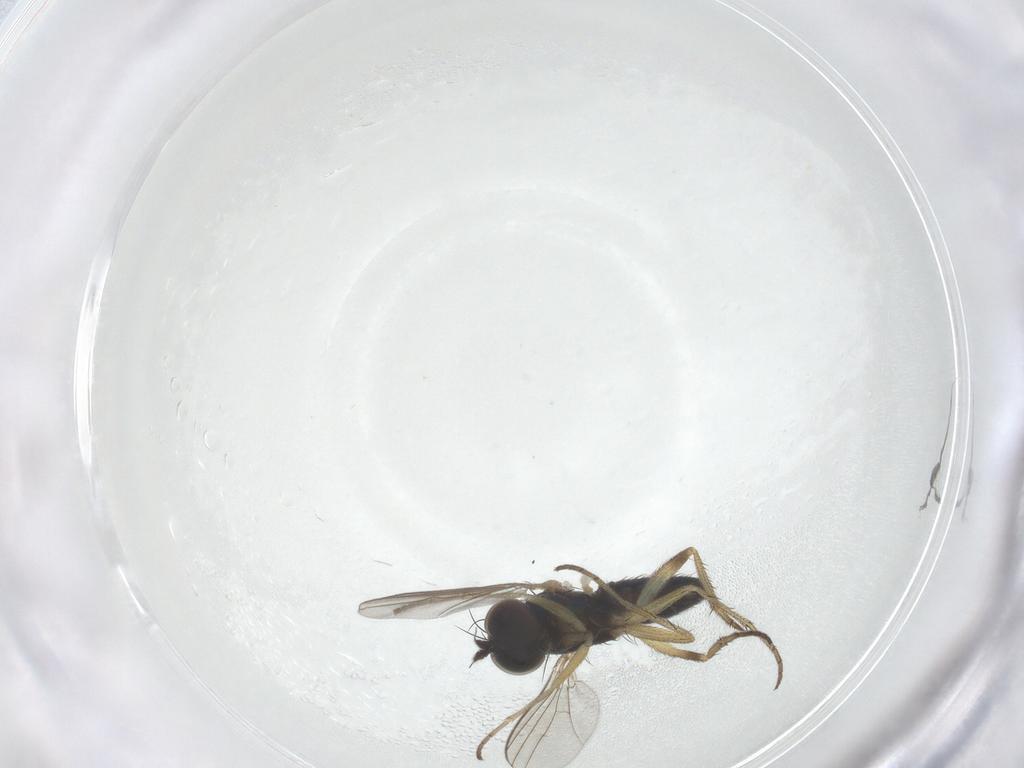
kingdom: Animalia
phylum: Arthropoda
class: Insecta
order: Diptera
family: Dolichopodidae
